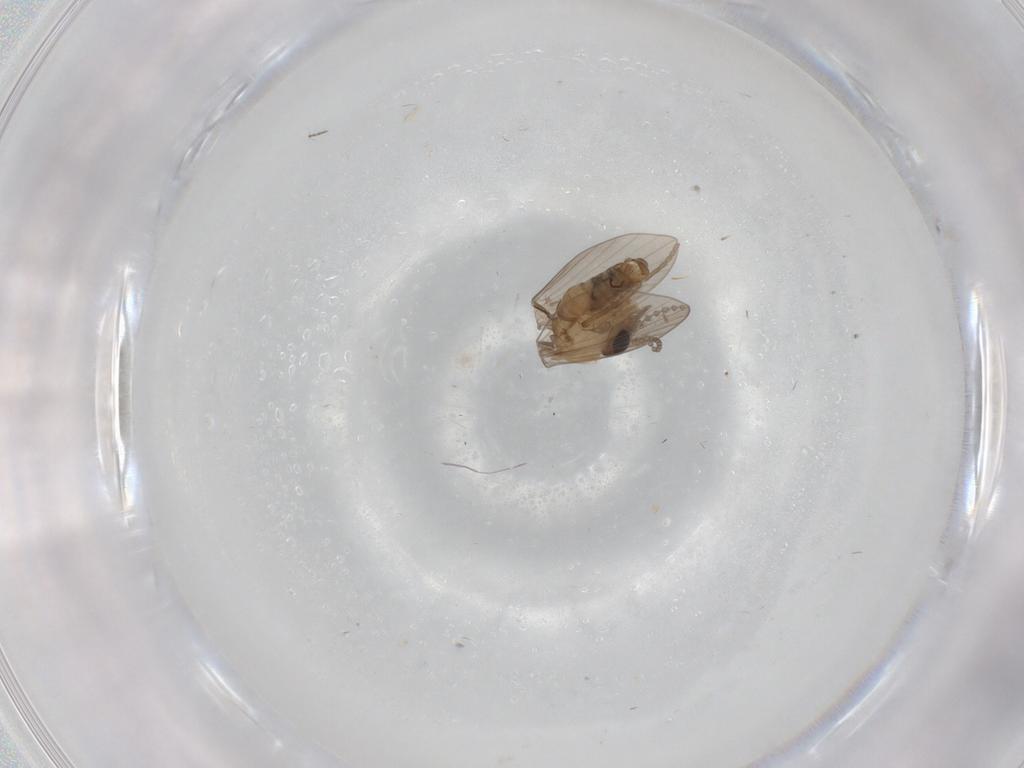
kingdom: Animalia
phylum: Arthropoda
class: Insecta
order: Diptera
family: Psychodidae
